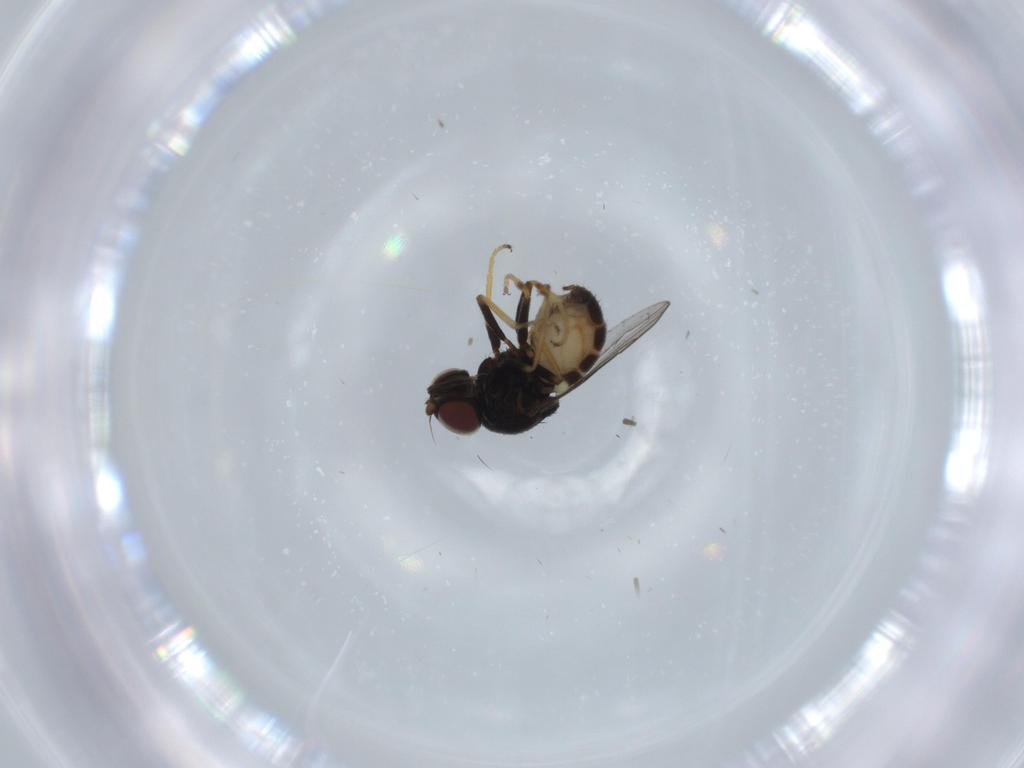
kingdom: Animalia
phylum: Arthropoda
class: Insecta
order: Diptera
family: Chloropidae
